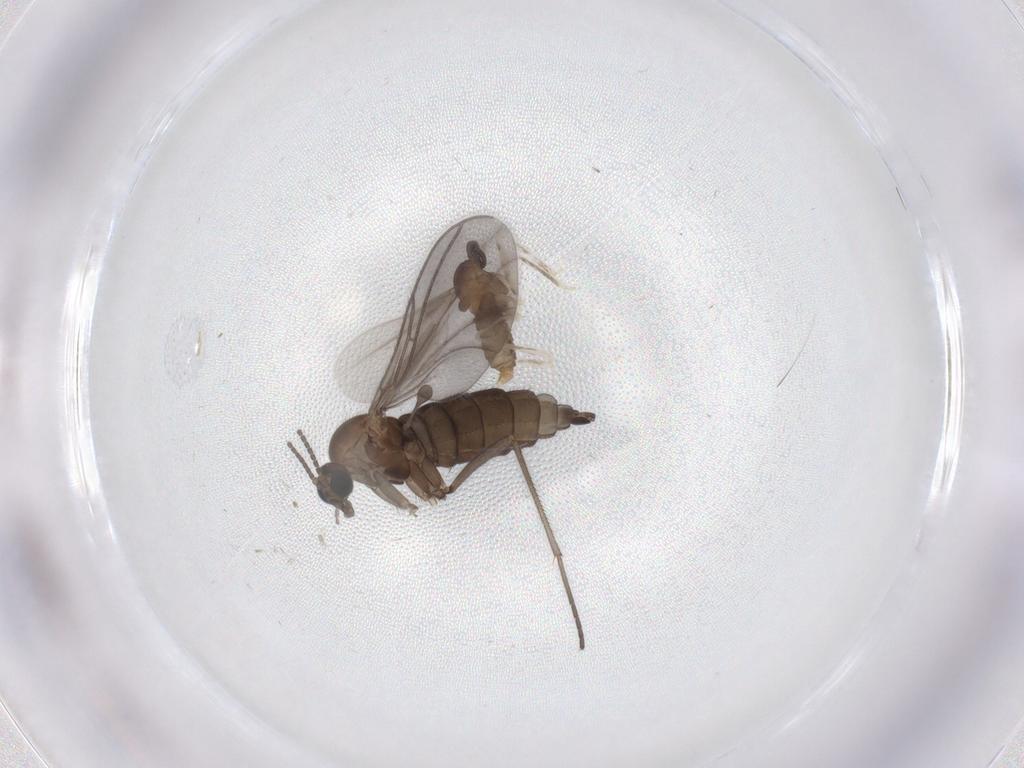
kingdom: Animalia
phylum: Arthropoda
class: Insecta
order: Diptera
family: Sciaridae
